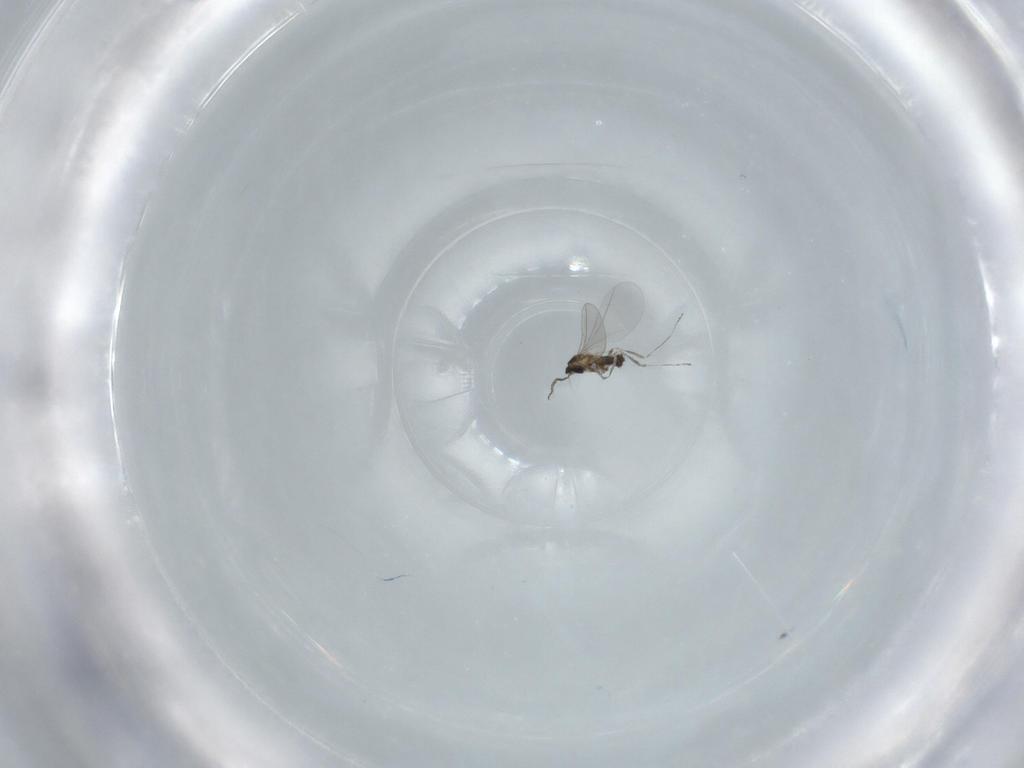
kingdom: Animalia
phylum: Arthropoda
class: Insecta
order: Diptera
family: Cecidomyiidae
